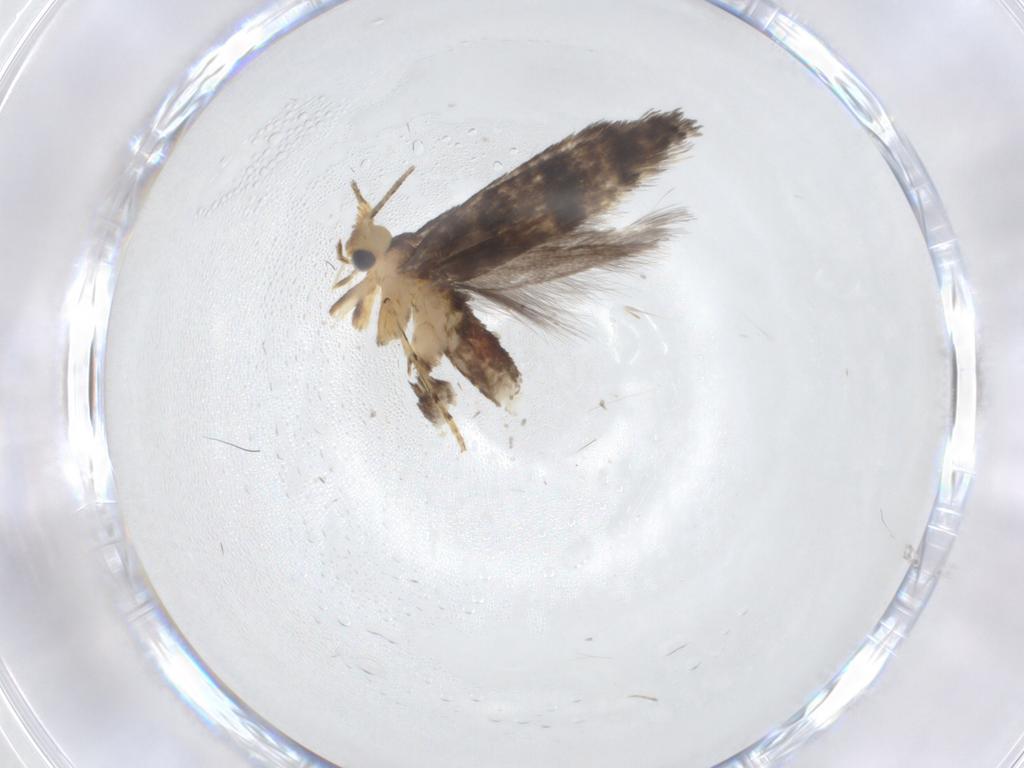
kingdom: Animalia
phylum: Arthropoda
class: Insecta
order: Lepidoptera
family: Argyresthiidae
